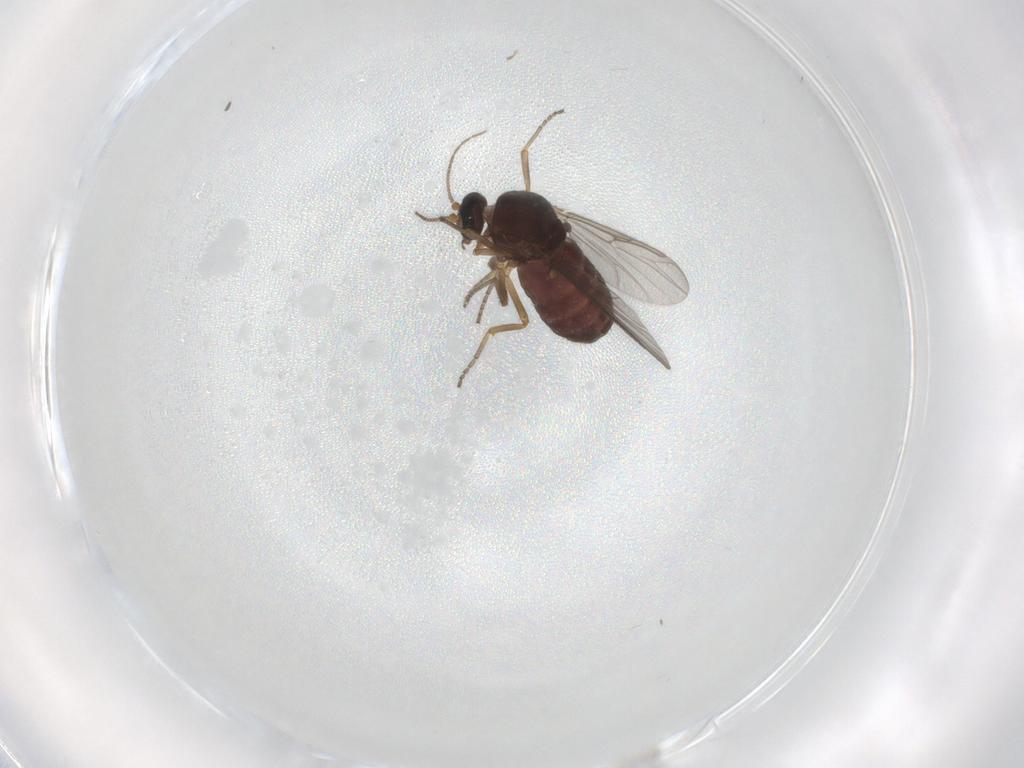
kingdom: Animalia
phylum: Arthropoda
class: Insecta
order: Diptera
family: Ceratopogonidae
